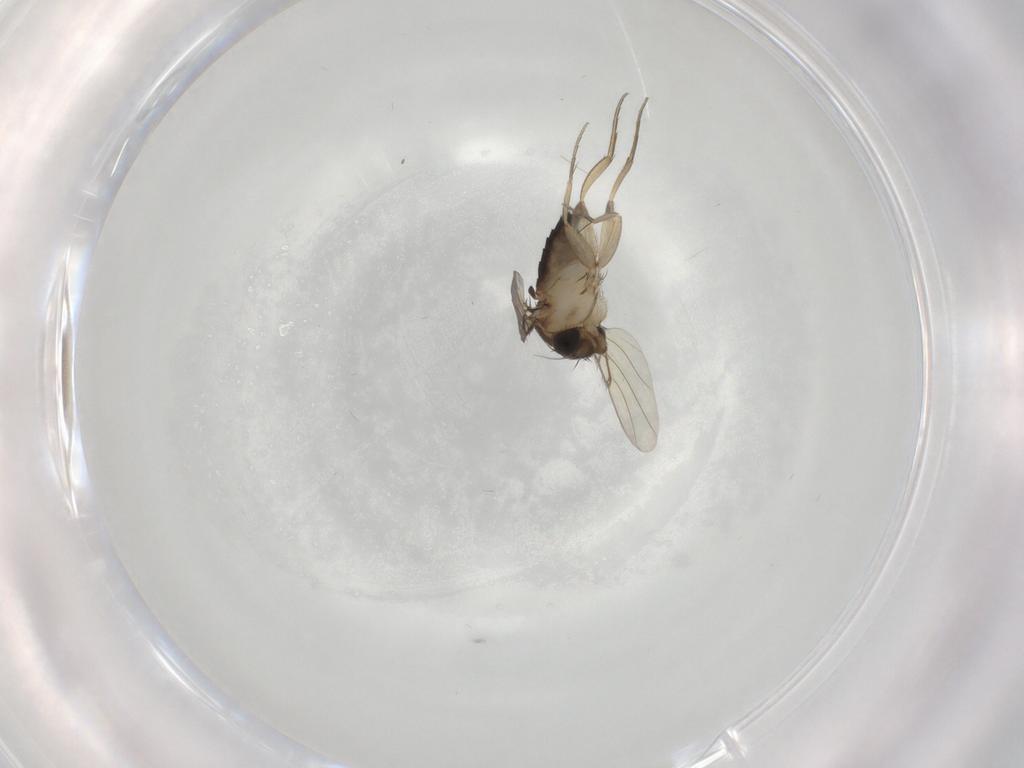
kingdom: Animalia
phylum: Arthropoda
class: Insecta
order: Diptera
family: Phoridae
